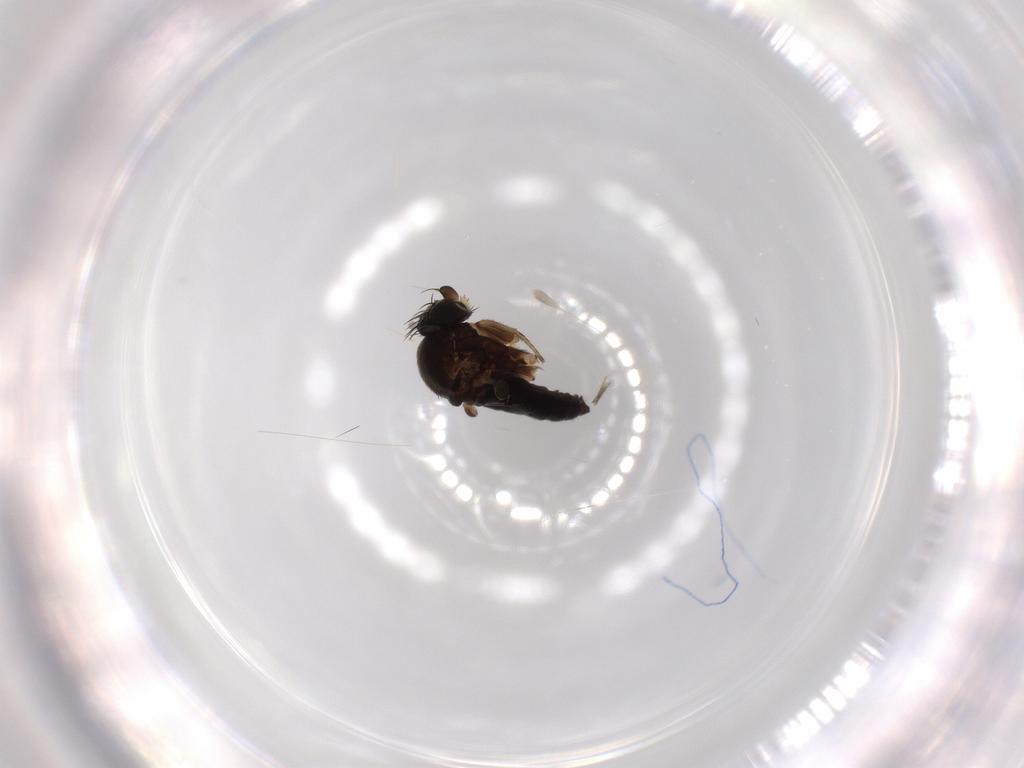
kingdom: Animalia
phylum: Arthropoda
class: Insecta
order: Diptera
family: Phoridae
